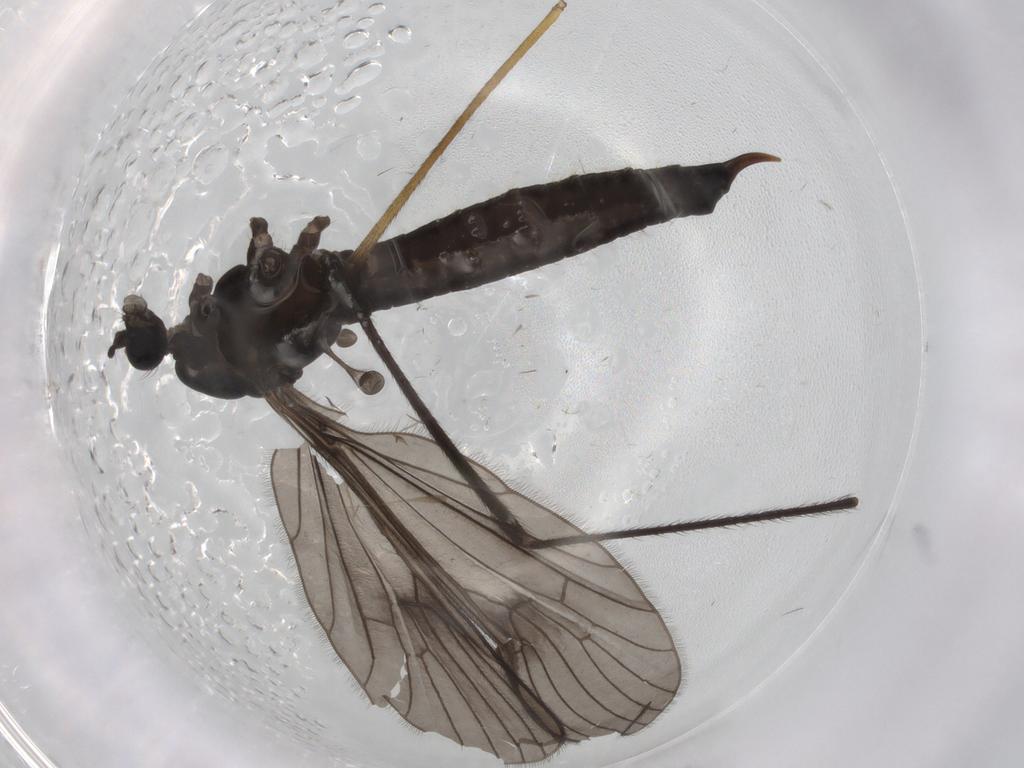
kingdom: Animalia
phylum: Arthropoda
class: Insecta
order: Diptera
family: Limoniidae
